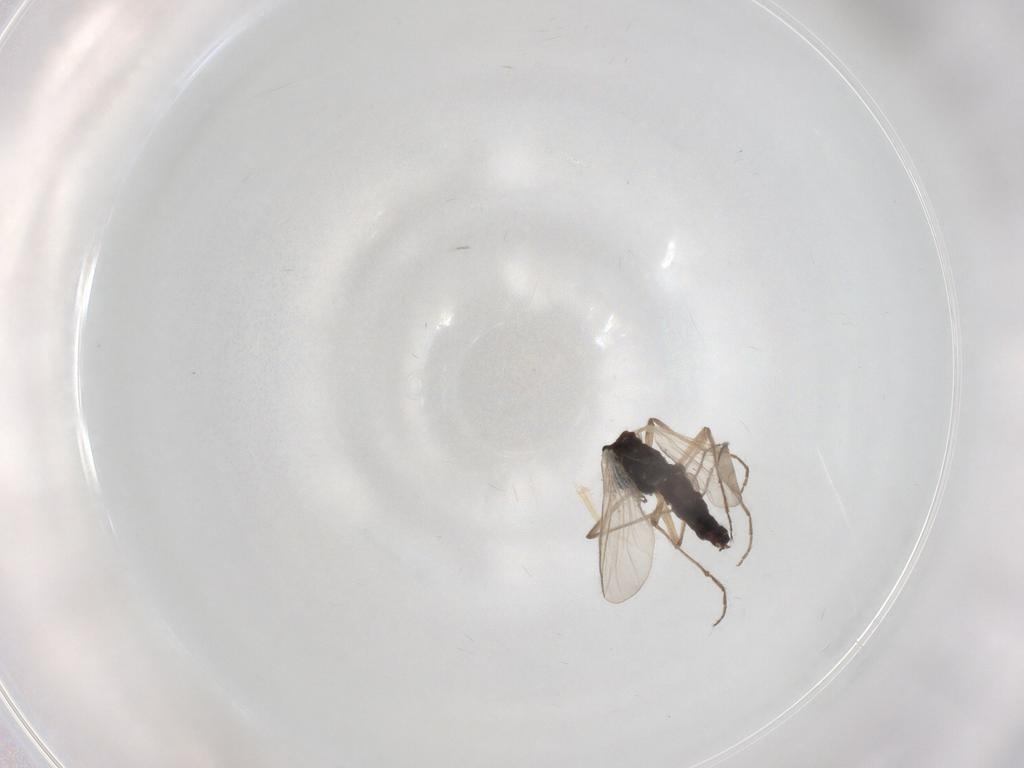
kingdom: Animalia
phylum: Arthropoda
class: Insecta
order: Diptera
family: Chironomidae
